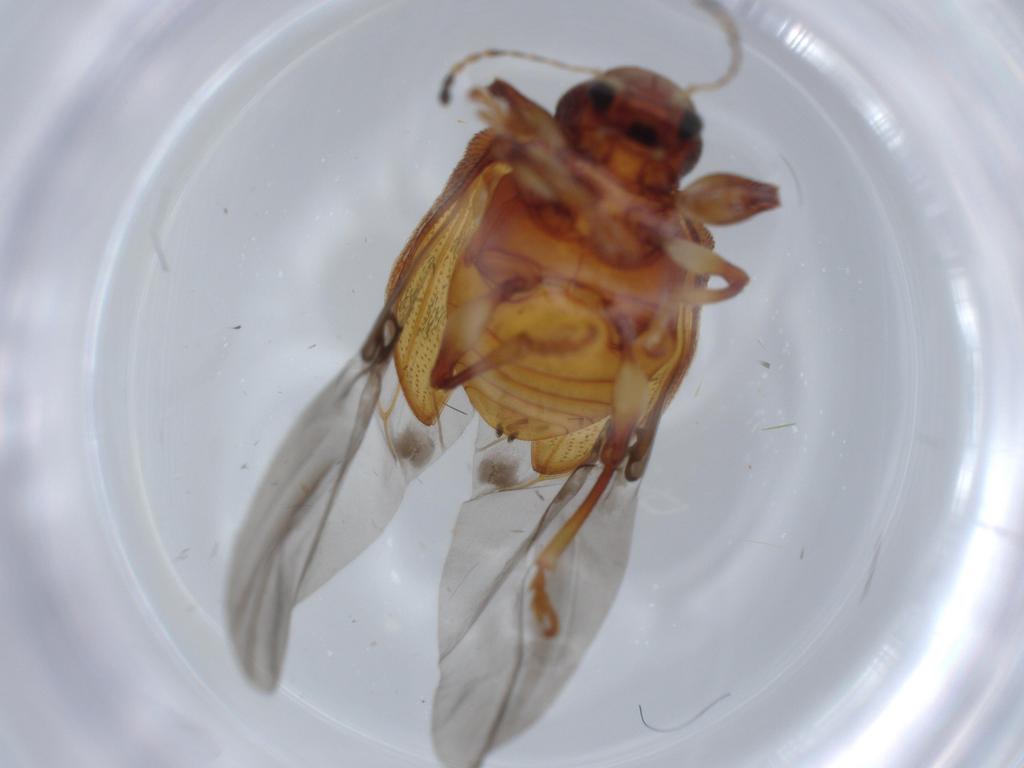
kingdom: Animalia
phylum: Arthropoda
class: Insecta
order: Coleoptera
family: Chrysomelidae
